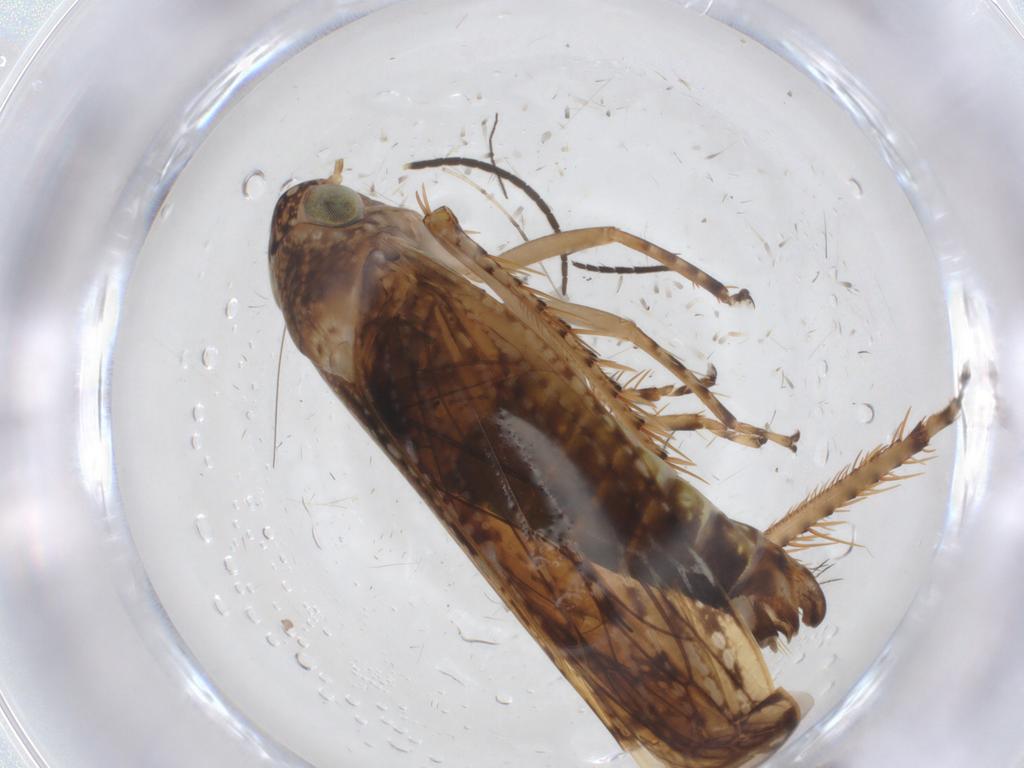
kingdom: Animalia
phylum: Arthropoda
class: Insecta
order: Hemiptera
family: Cicadellidae
